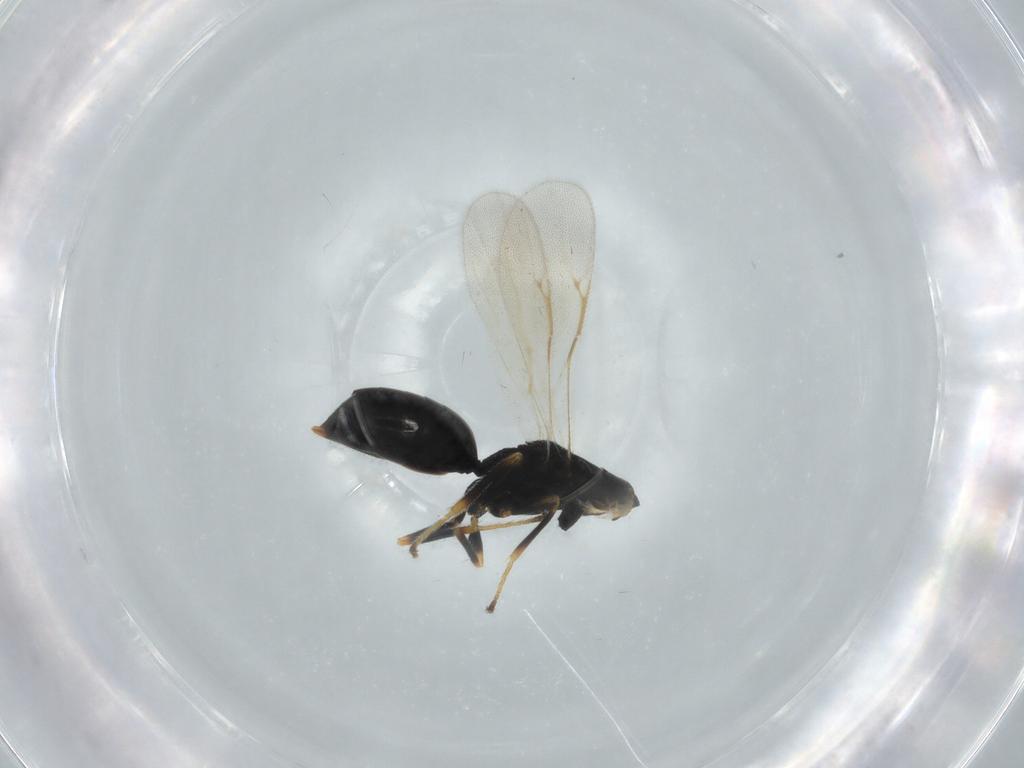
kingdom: Animalia
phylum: Arthropoda
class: Insecta
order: Hymenoptera
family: Eurytomidae
